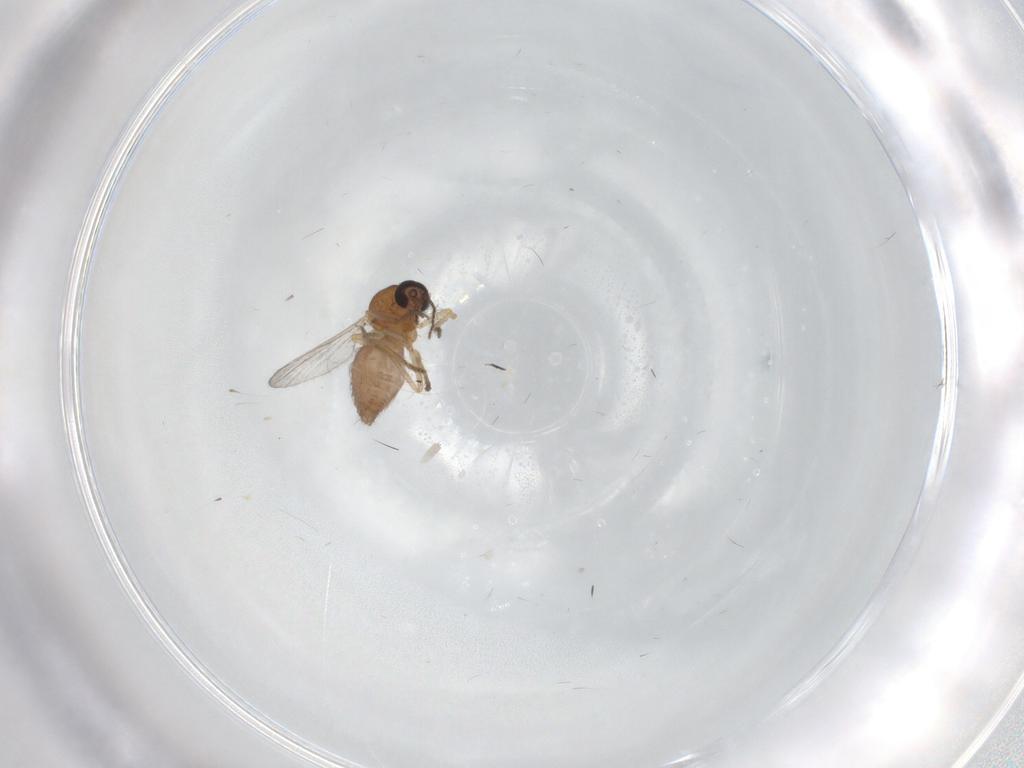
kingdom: Animalia
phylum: Arthropoda
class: Insecta
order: Diptera
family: Ceratopogonidae
